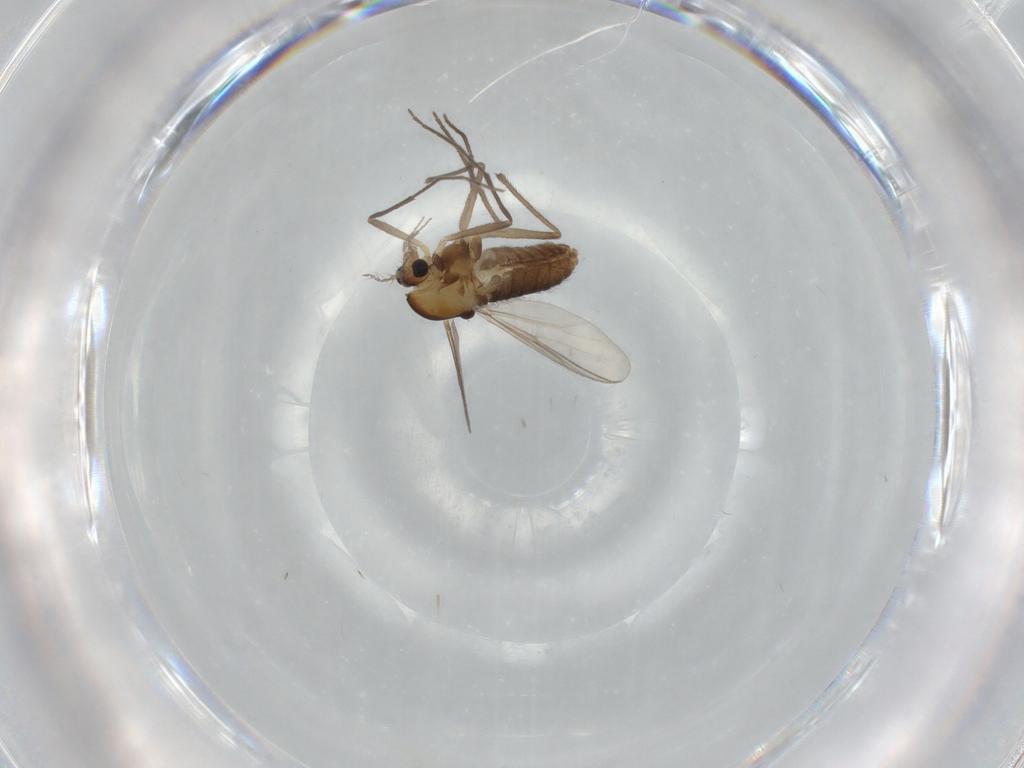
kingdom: Animalia
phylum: Arthropoda
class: Insecta
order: Diptera
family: Chironomidae
